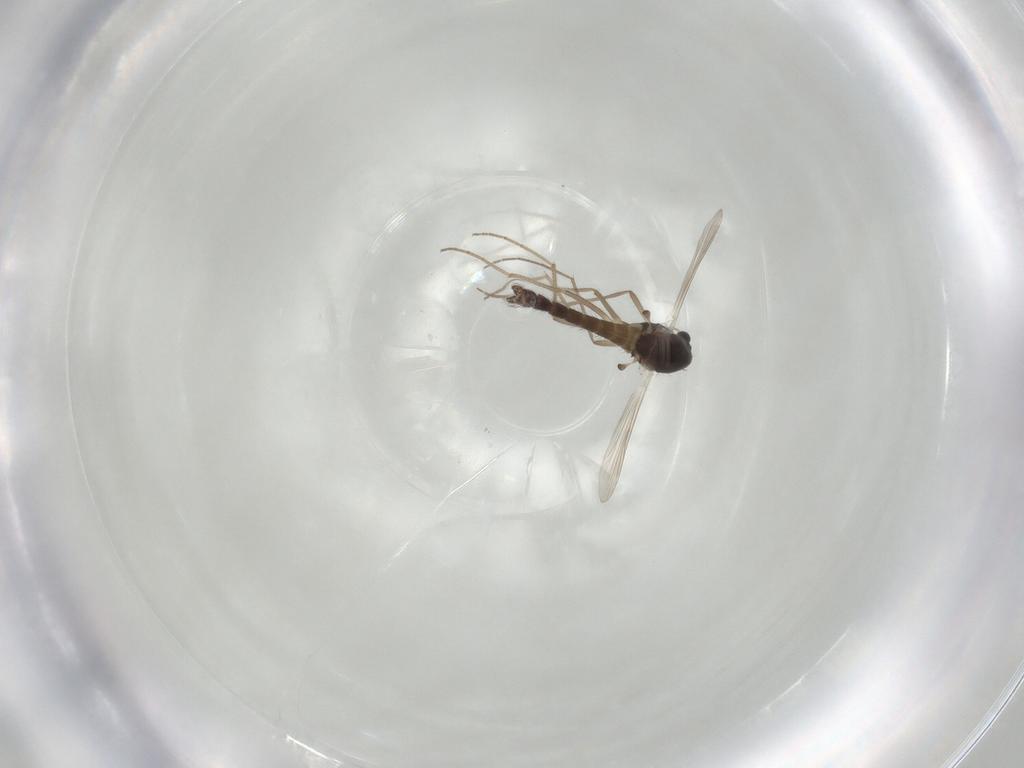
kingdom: Animalia
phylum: Arthropoda
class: Insecta
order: Diptera
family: Chironomidae
